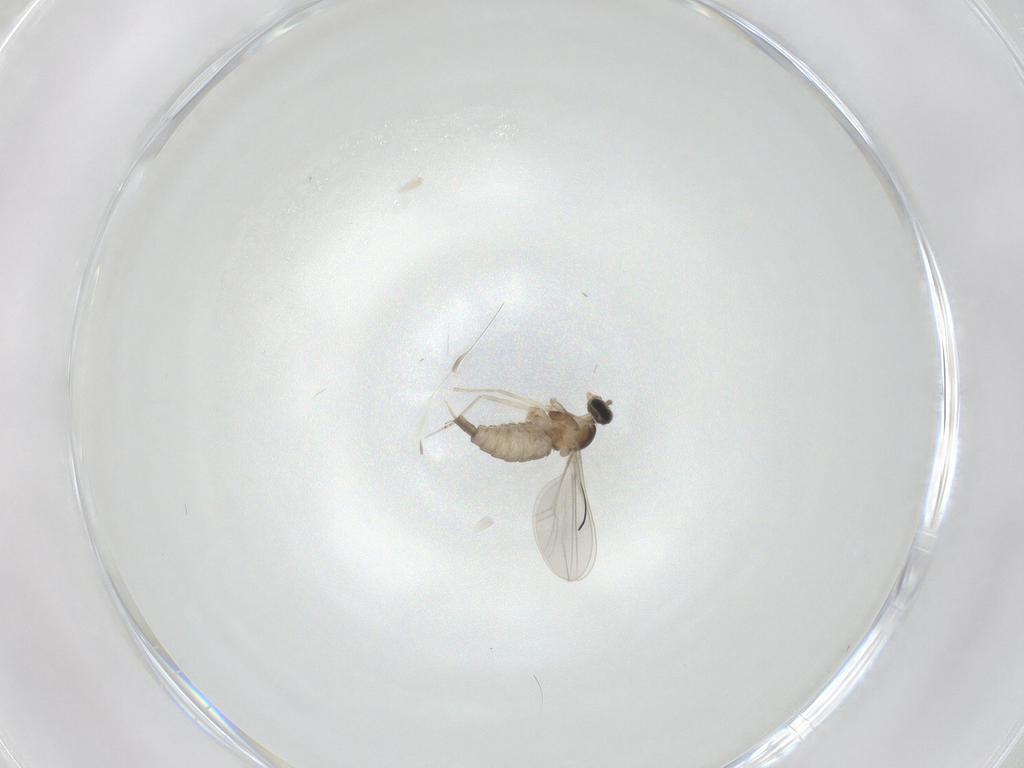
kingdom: Animalia
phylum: Arthropoda
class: Insecta
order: Diptera
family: Cecidomyiidae
